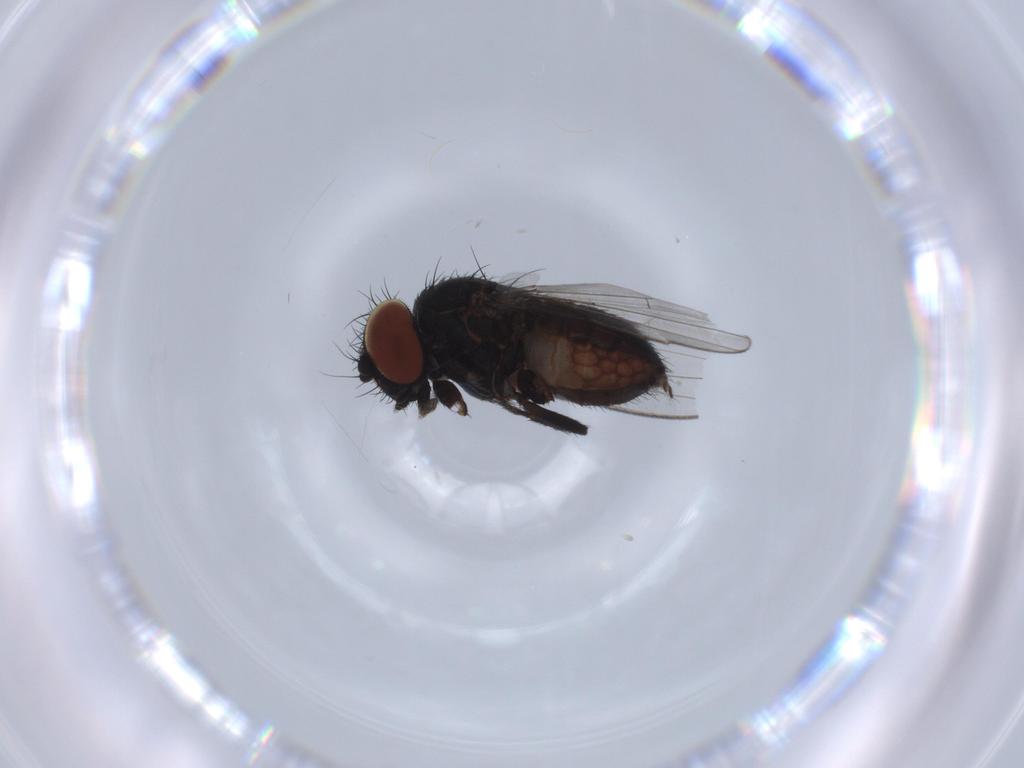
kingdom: Animalia
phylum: Arthropoda
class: Insecta
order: Diptera
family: Milichiidae
